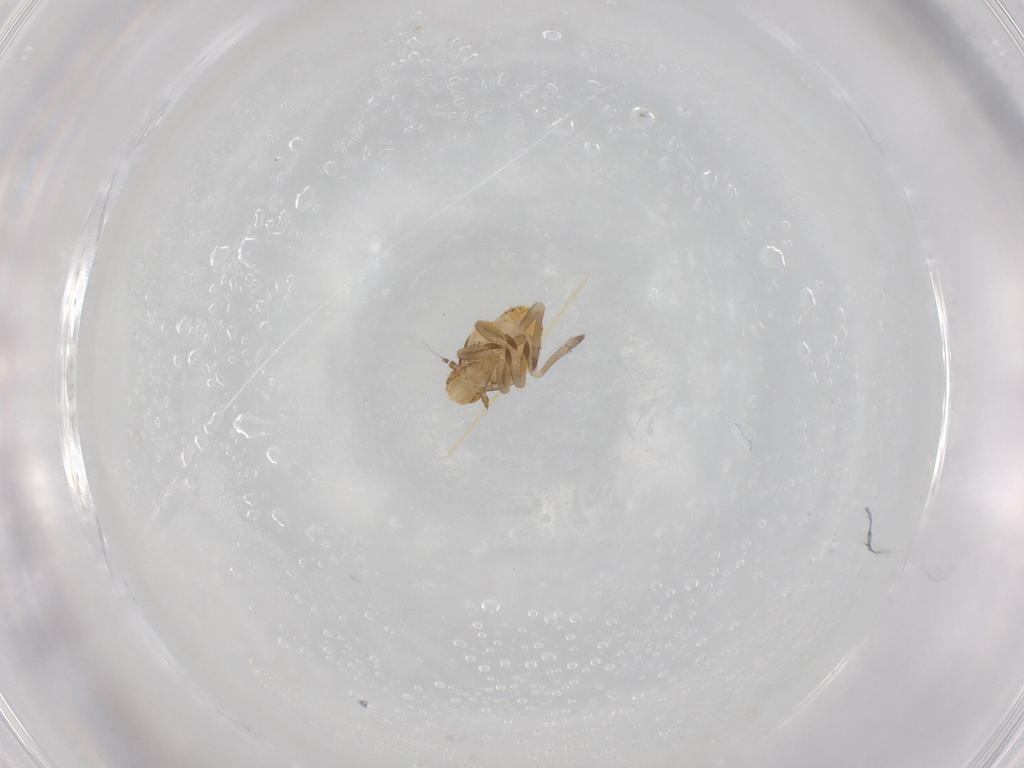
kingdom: Animalia
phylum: Arthropoda
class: Insecta
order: Hemiptera
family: Flatidae
